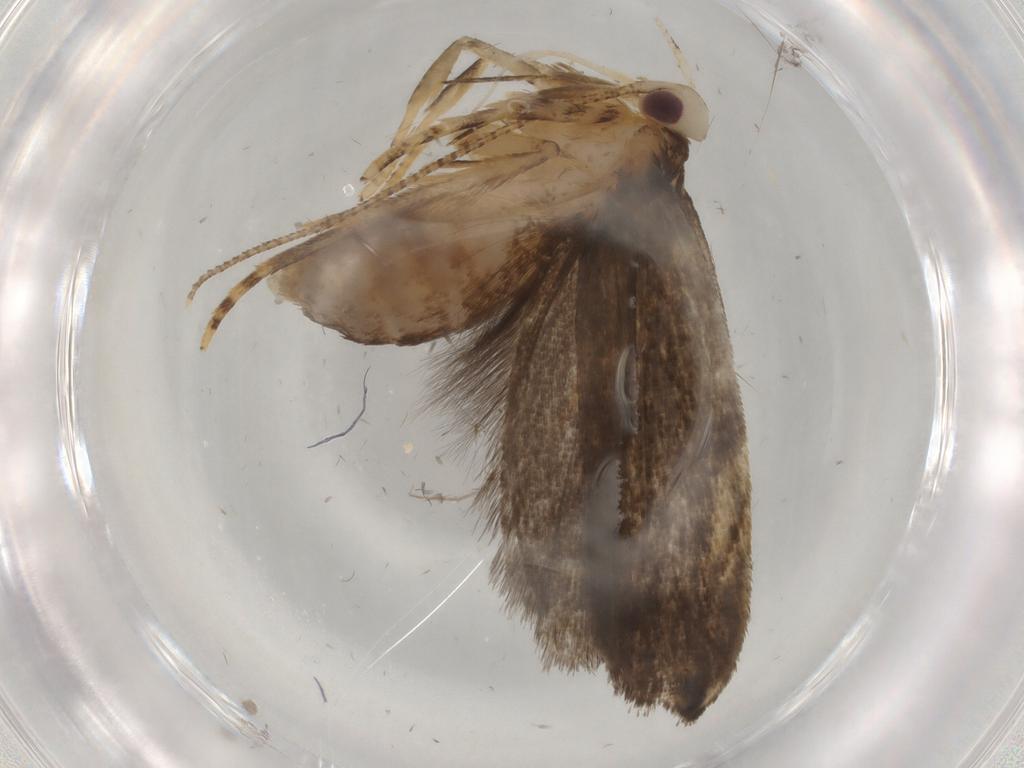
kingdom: Animalia
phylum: Arthropoda
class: Insecta
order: Lepidoptera
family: Gelechiidae
